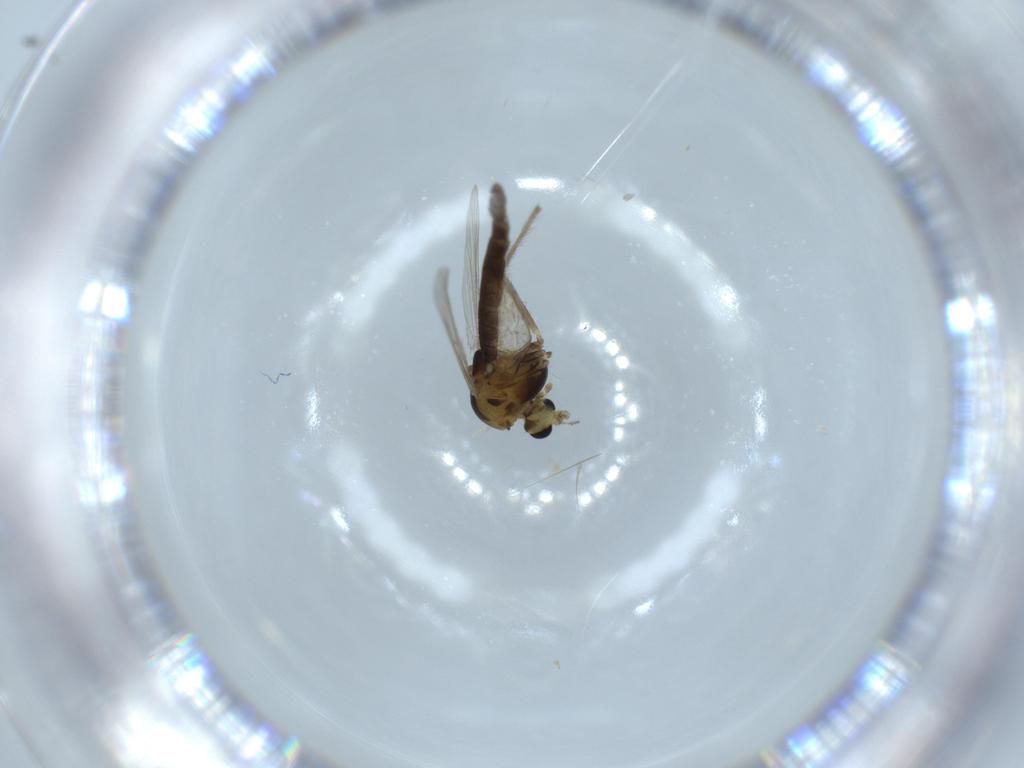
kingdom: Animalia
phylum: Arthropoda
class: Insecta
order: Diptera
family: Chironomidae
